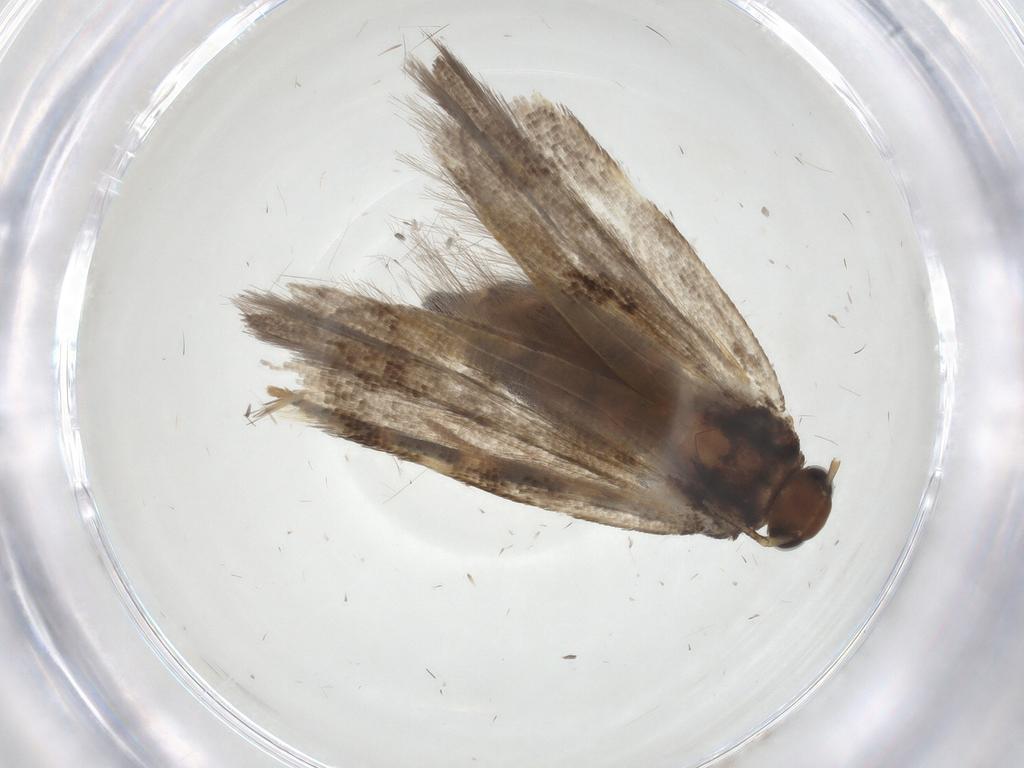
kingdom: Animalia
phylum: Arthropoda
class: Insecta
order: Lepidoptera
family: Gelechiidae
